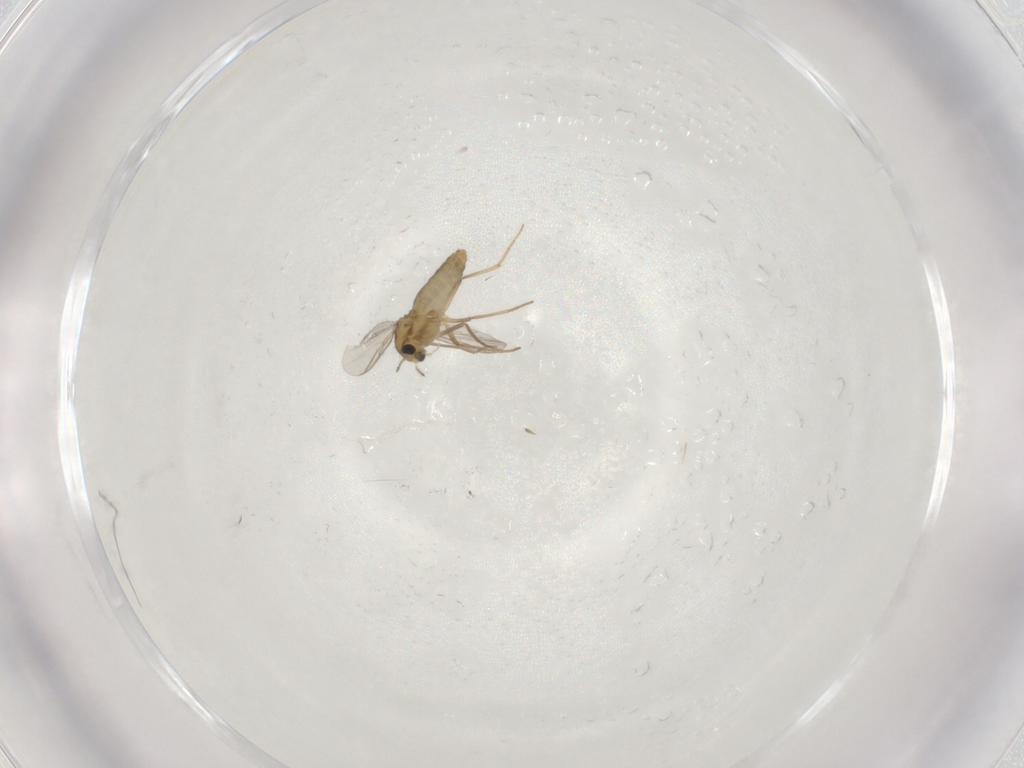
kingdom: Animalia
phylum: Arthropoda
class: Insecta
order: Diptera
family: Chironomidae
